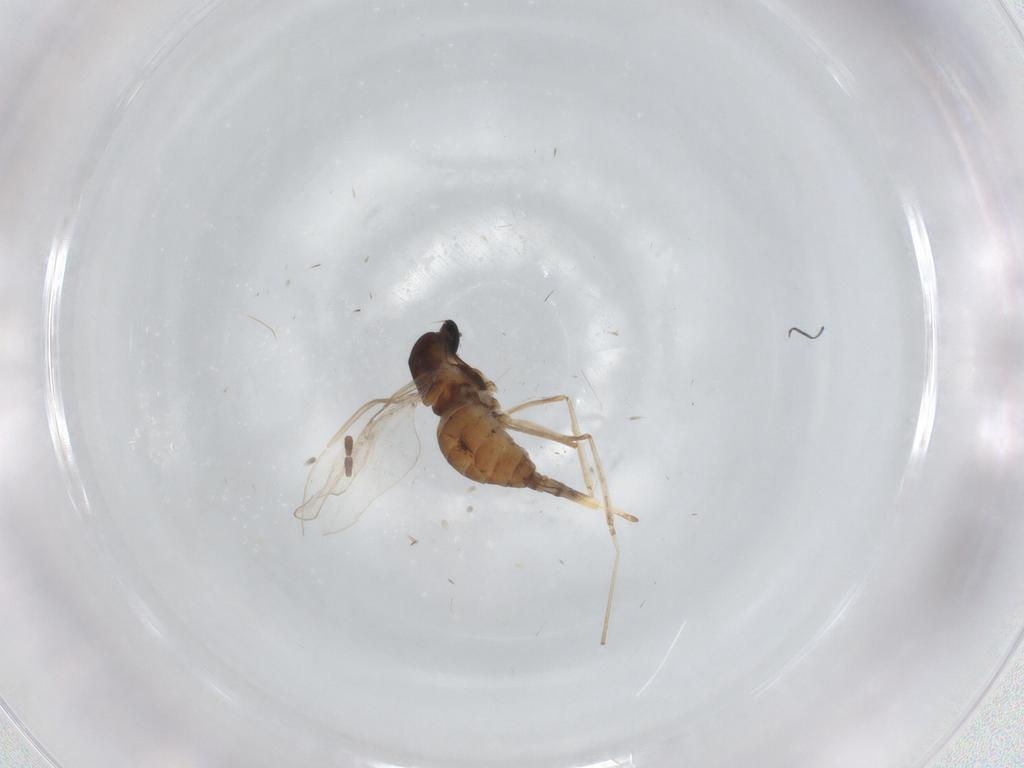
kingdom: Animalia
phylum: Arthropoda
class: Insecta
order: Diptera
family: Cecidomyiidae
